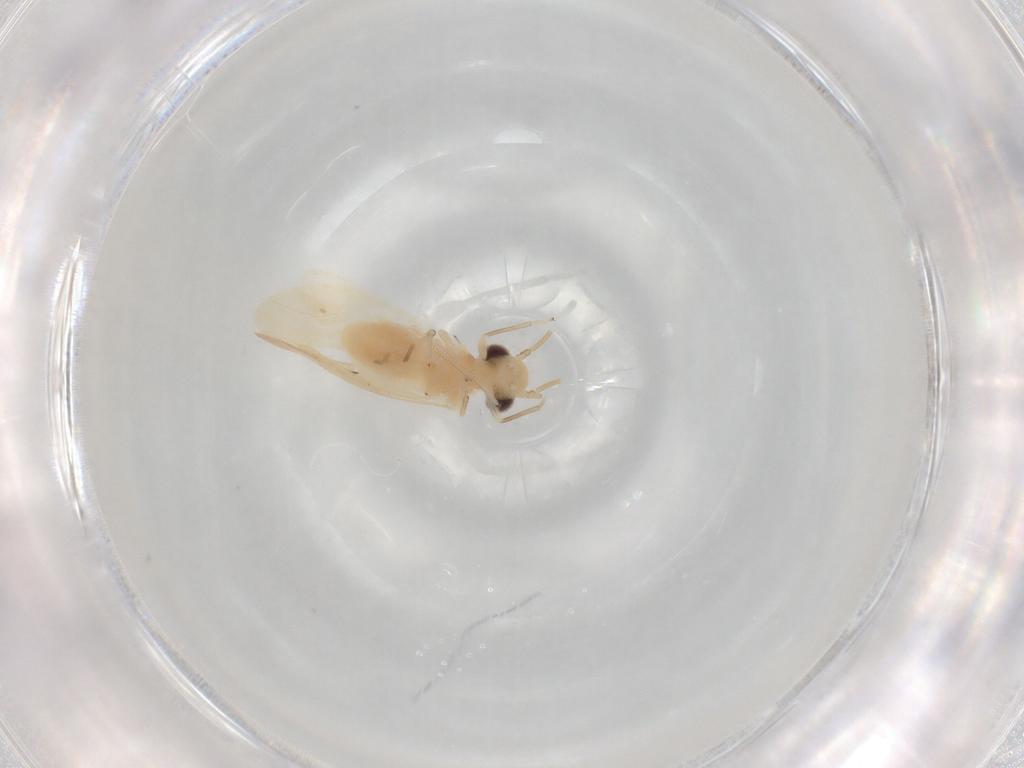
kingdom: Animalia
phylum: Arthropoda
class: Insecta
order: Psocodea
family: Caeciliusidae
